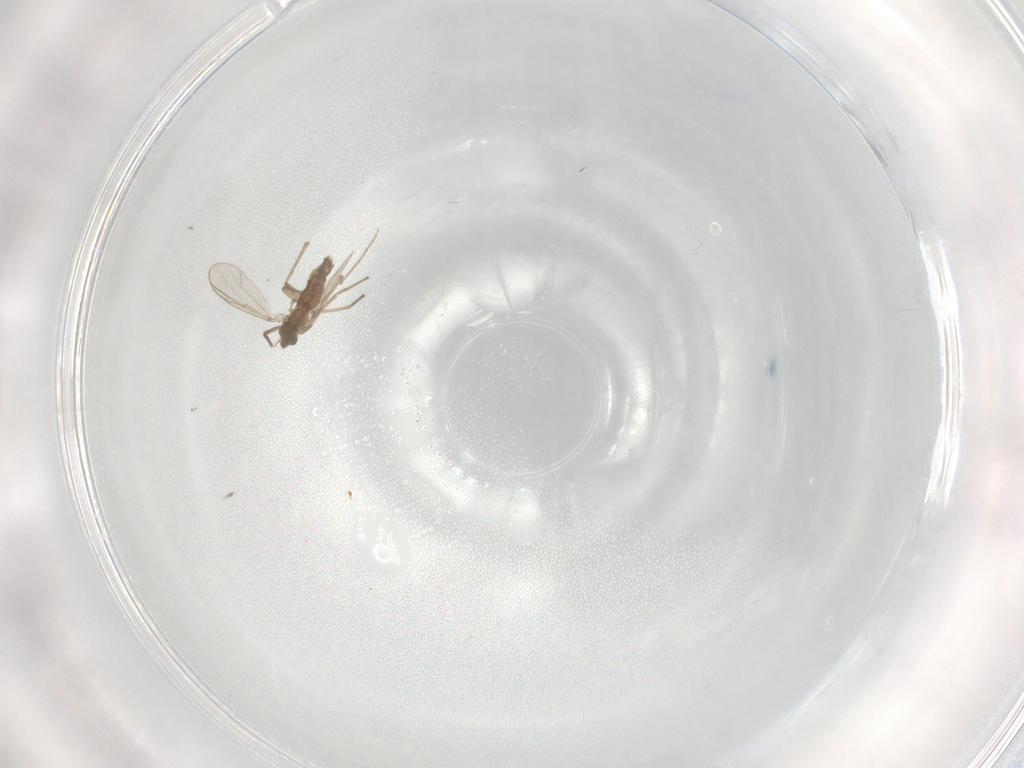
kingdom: Animalia
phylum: Arthropoda
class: Insecta
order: Diptera
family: Chironomidae
